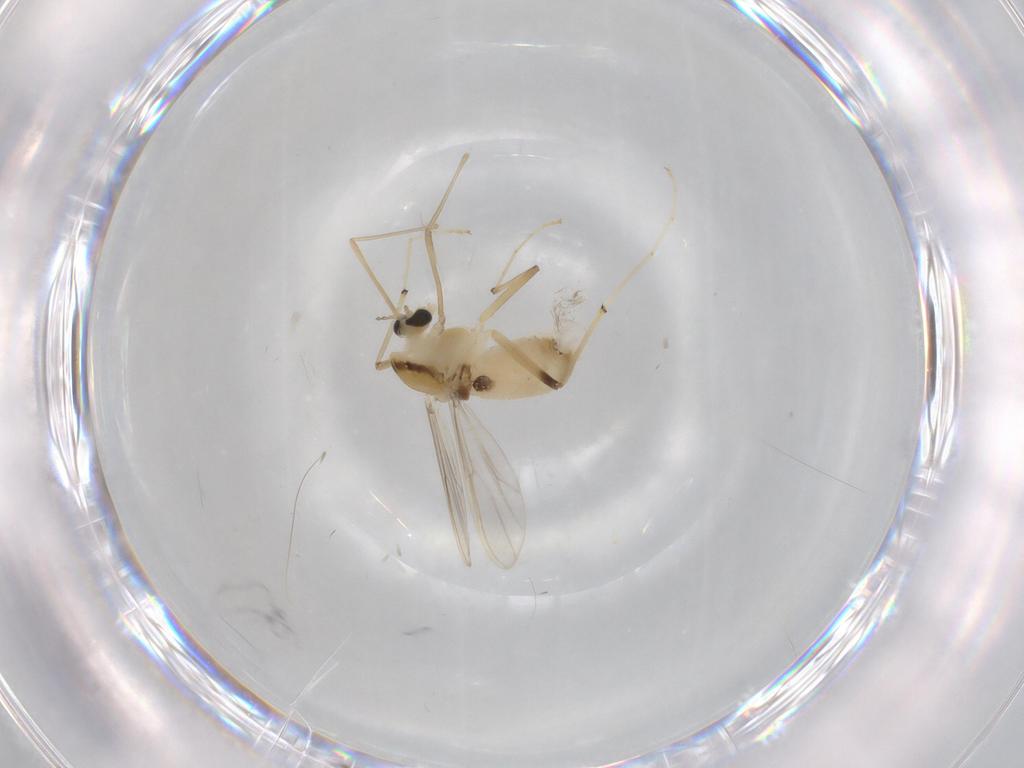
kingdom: Animalia
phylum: Arthropoda
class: Insecta
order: Diptera
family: Chironomidae
